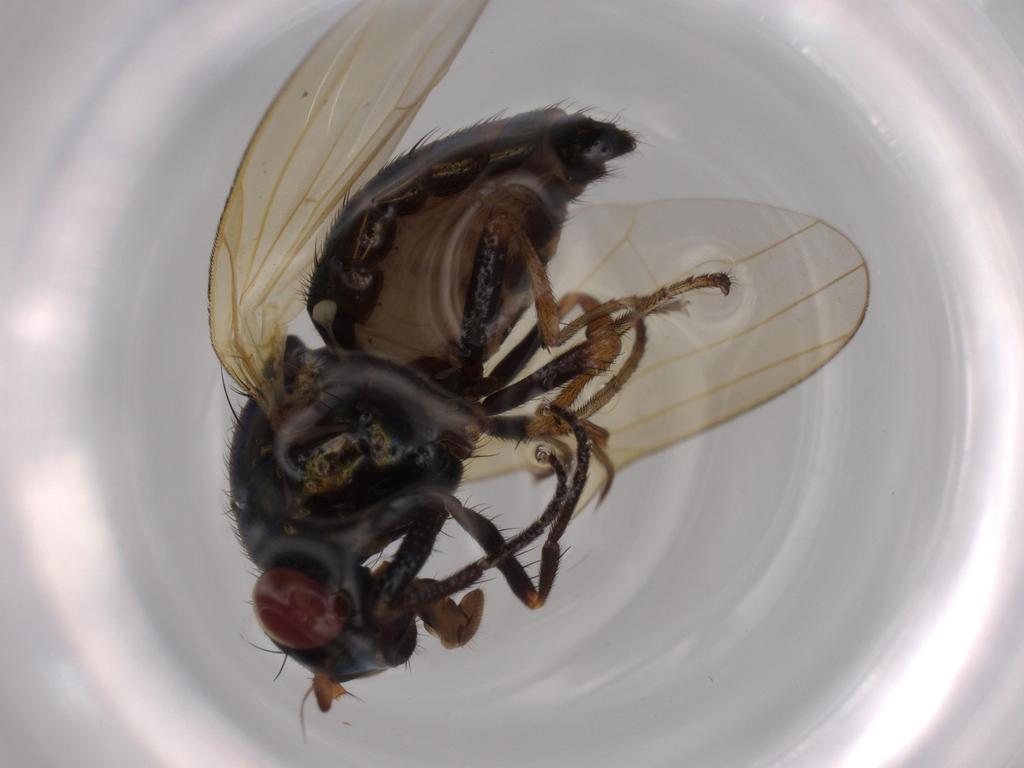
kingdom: Animalia
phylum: Arthropoda
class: Insecta
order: Diptera
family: Lauxaniidae
